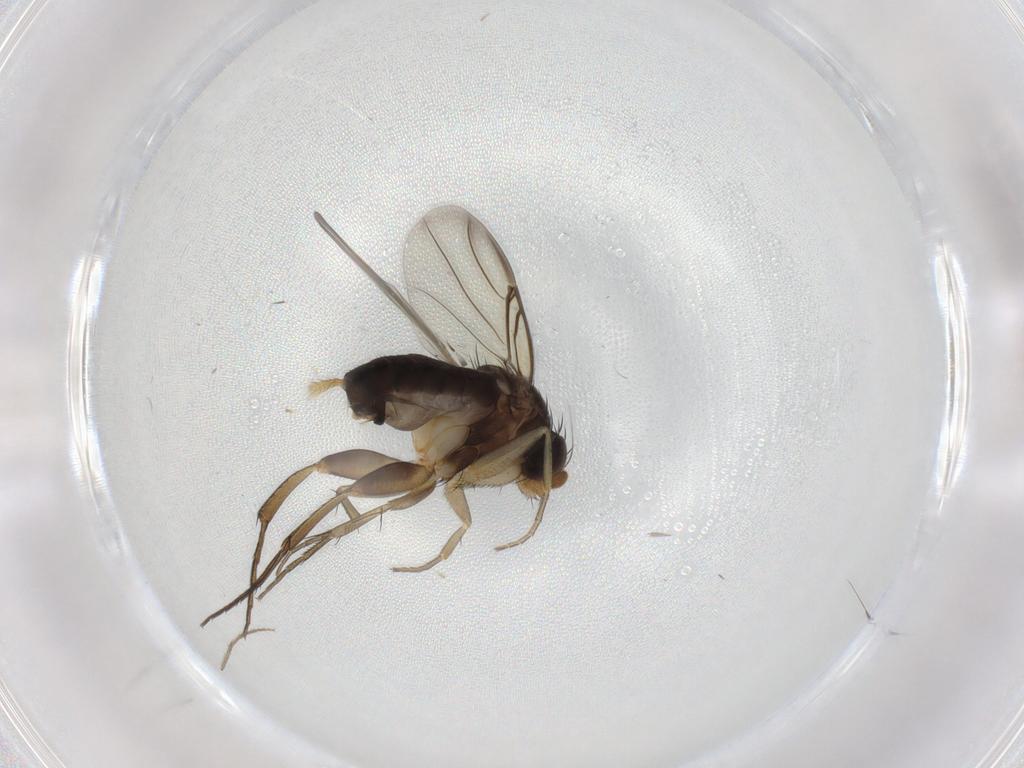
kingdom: Animalia
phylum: Arthropoda
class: Insecta
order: Diptera
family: Phoridae
